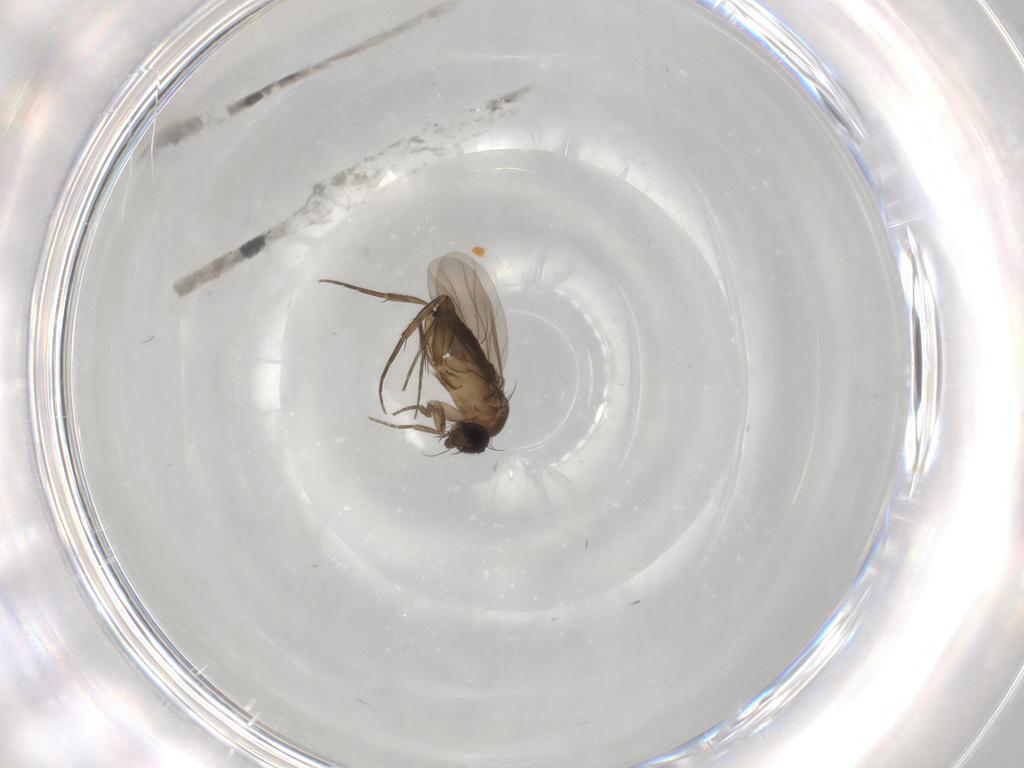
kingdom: Animalia
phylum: Arthropoda
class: Insecta
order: Diptera
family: Phoridae
